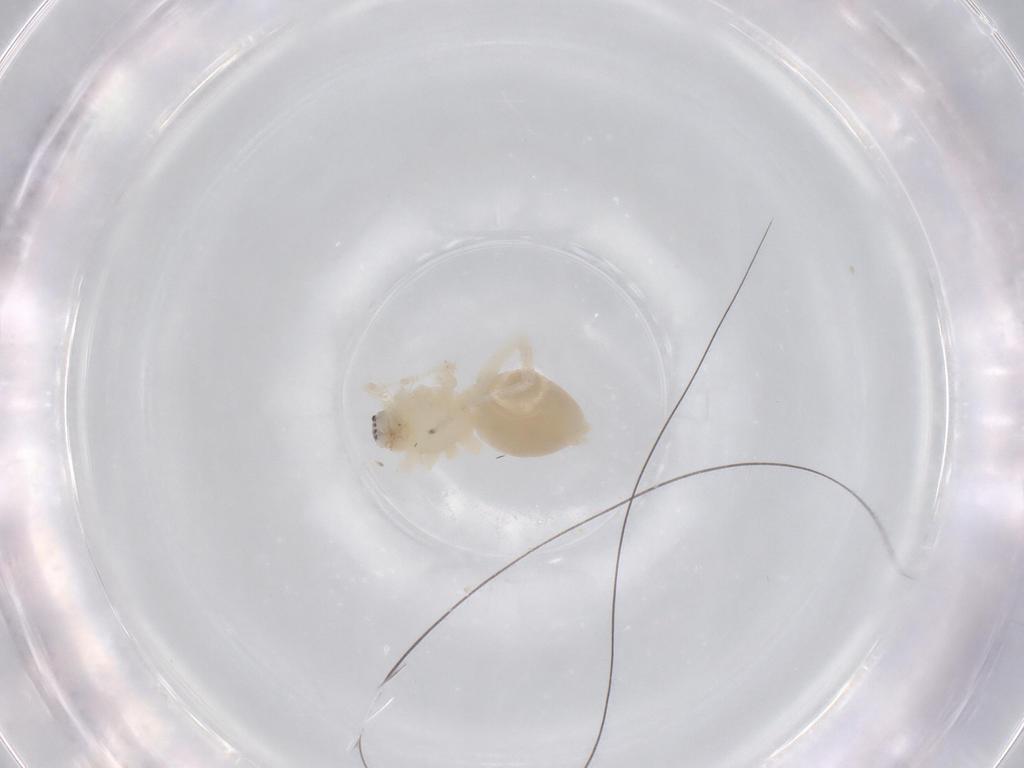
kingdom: Animalia
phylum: Arthropoda
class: Arachnida
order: Araneae
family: Anyphaenidae
